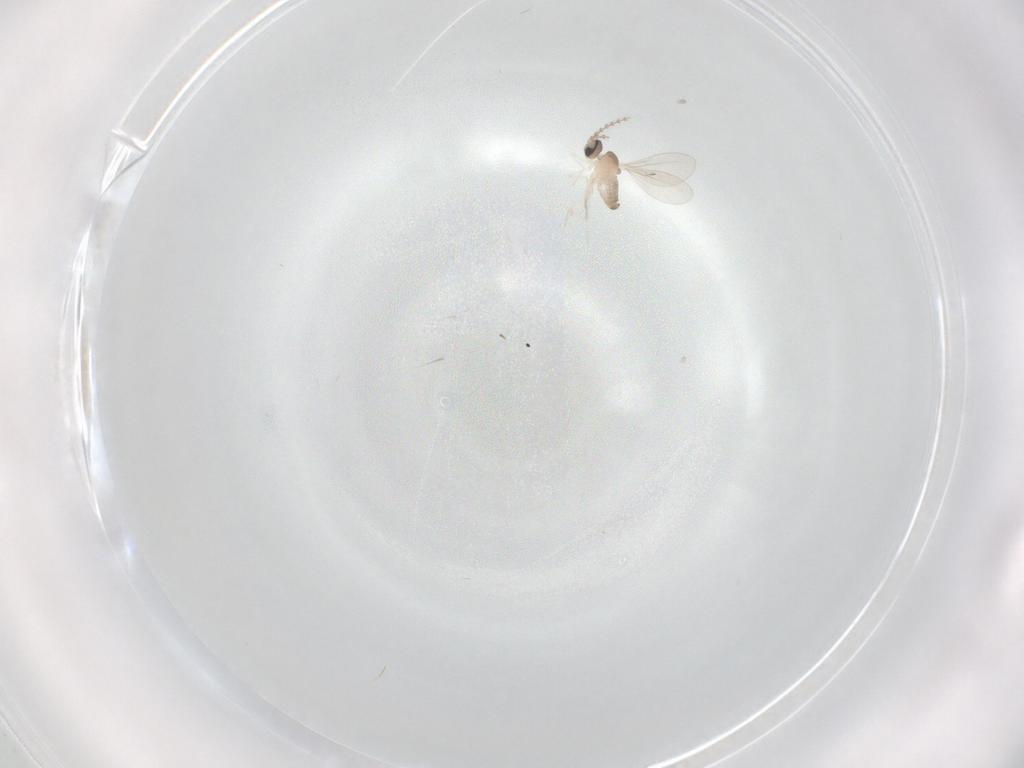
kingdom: Animalia
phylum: Arthropoda
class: Insecta
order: Diptera
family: Cecidomyiidae
